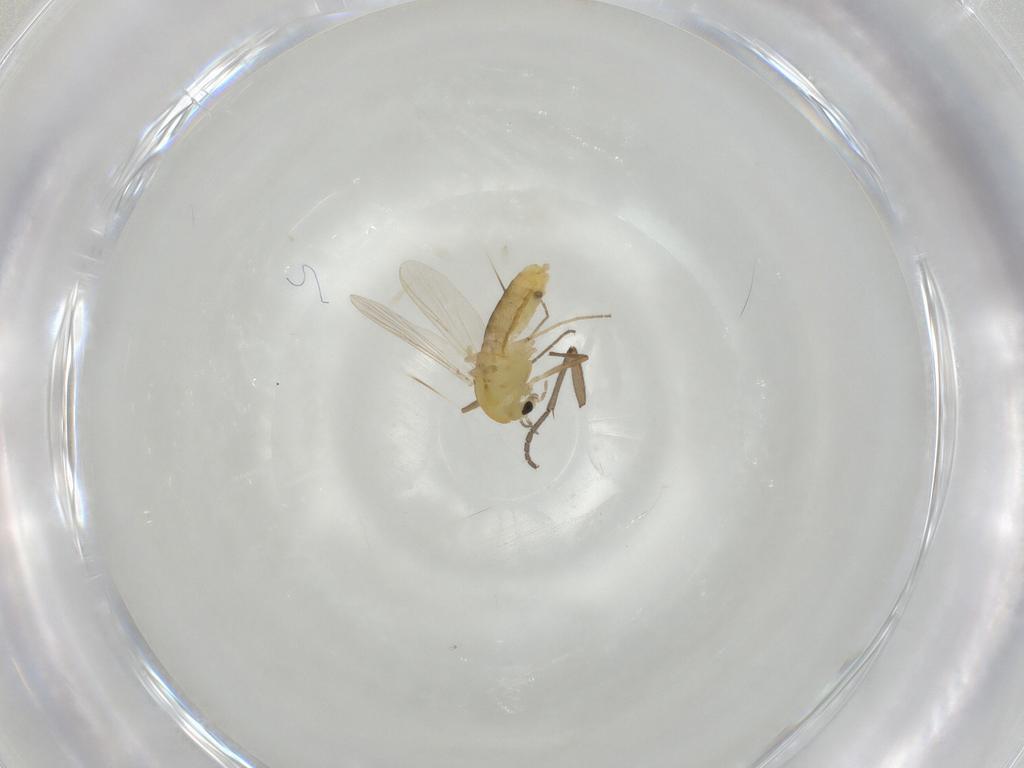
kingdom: Animalia
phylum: Arthropoda
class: Insecta
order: Diptera
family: Chironomidae
